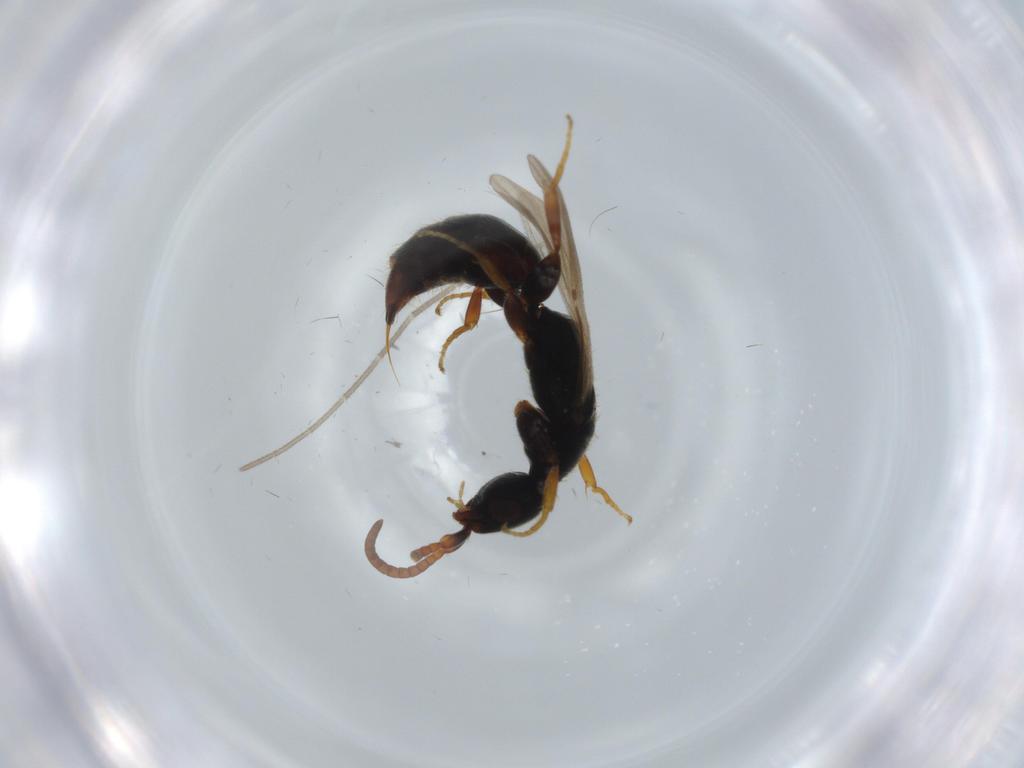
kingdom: Animalia
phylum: Arthropoda
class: Insecta
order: Hymenoptera
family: Bethylidae
